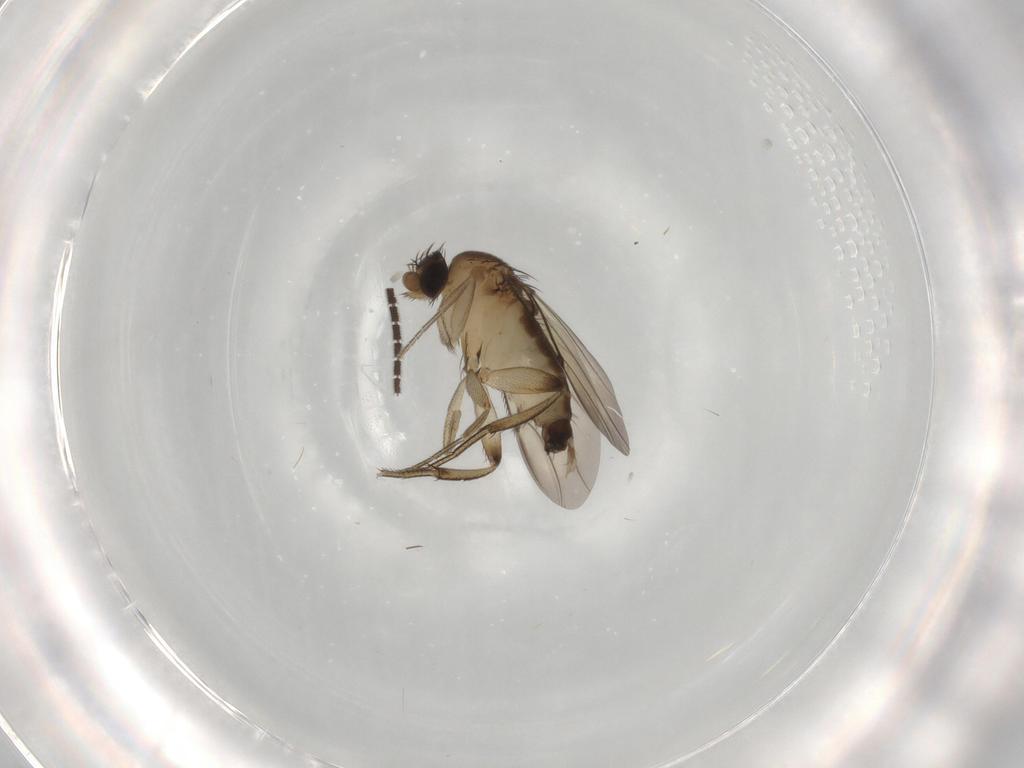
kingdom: Animalia
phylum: Arthropoda
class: Insecta
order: Diptera
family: Phoridae
